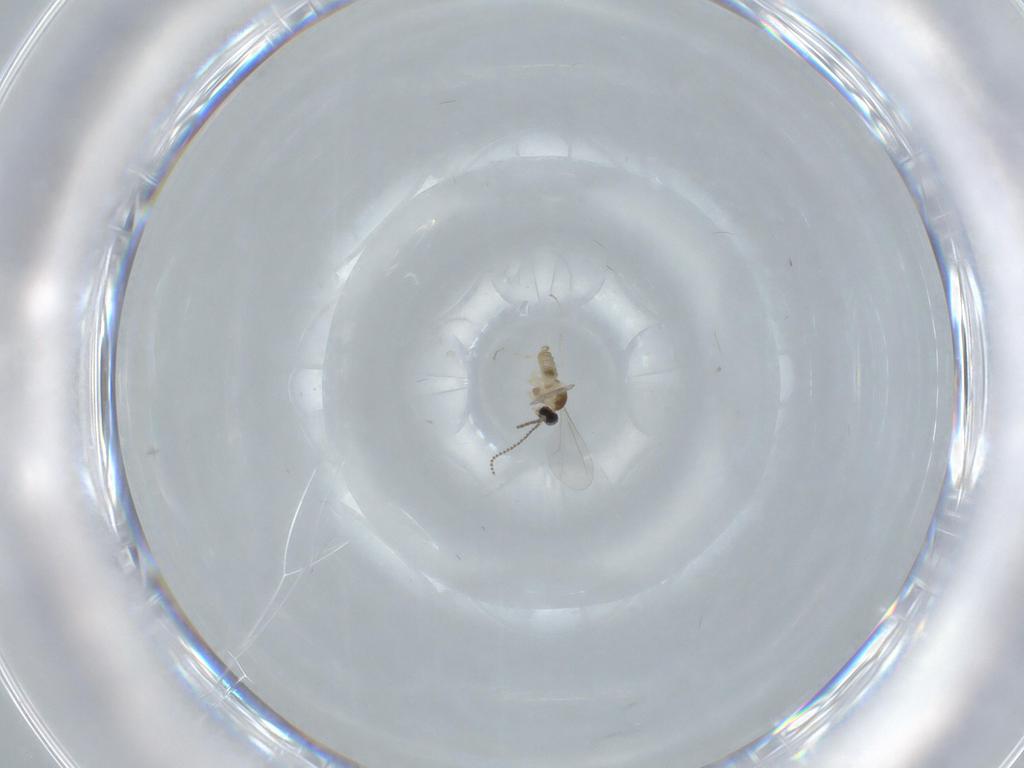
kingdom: Animalia
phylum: Arthropoda
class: Insecta
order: Diptera
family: Cecidomyiidae
